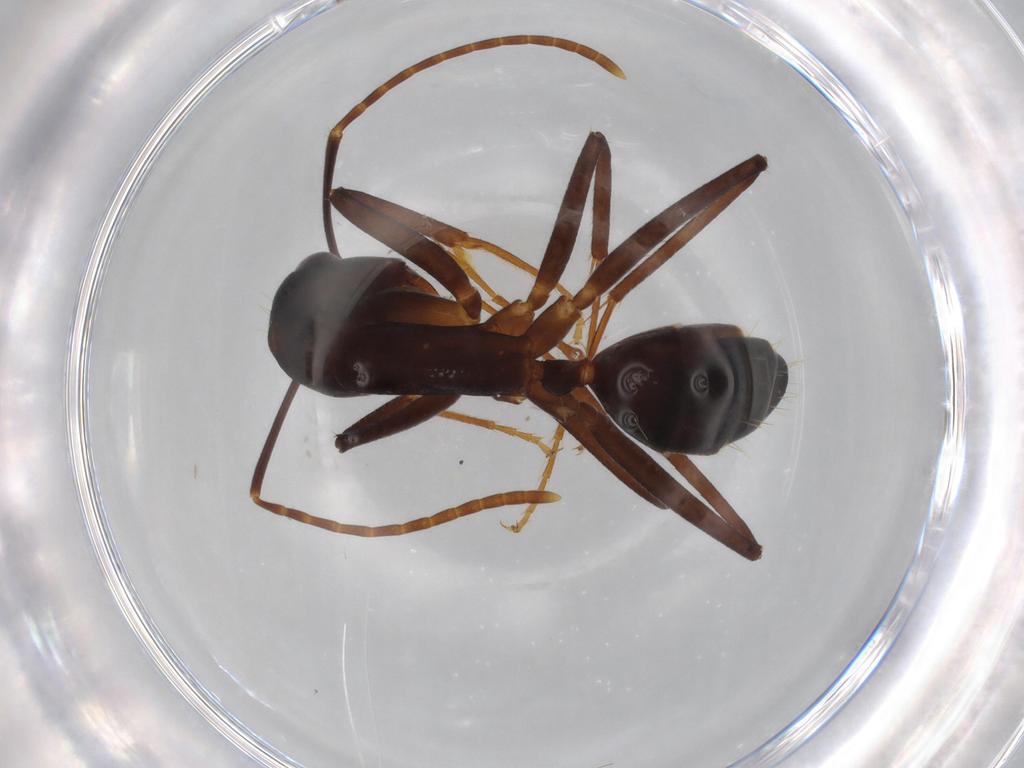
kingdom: Animalia
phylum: Arthropoda
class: Insecta
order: Hymenoptera
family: Formicidae
